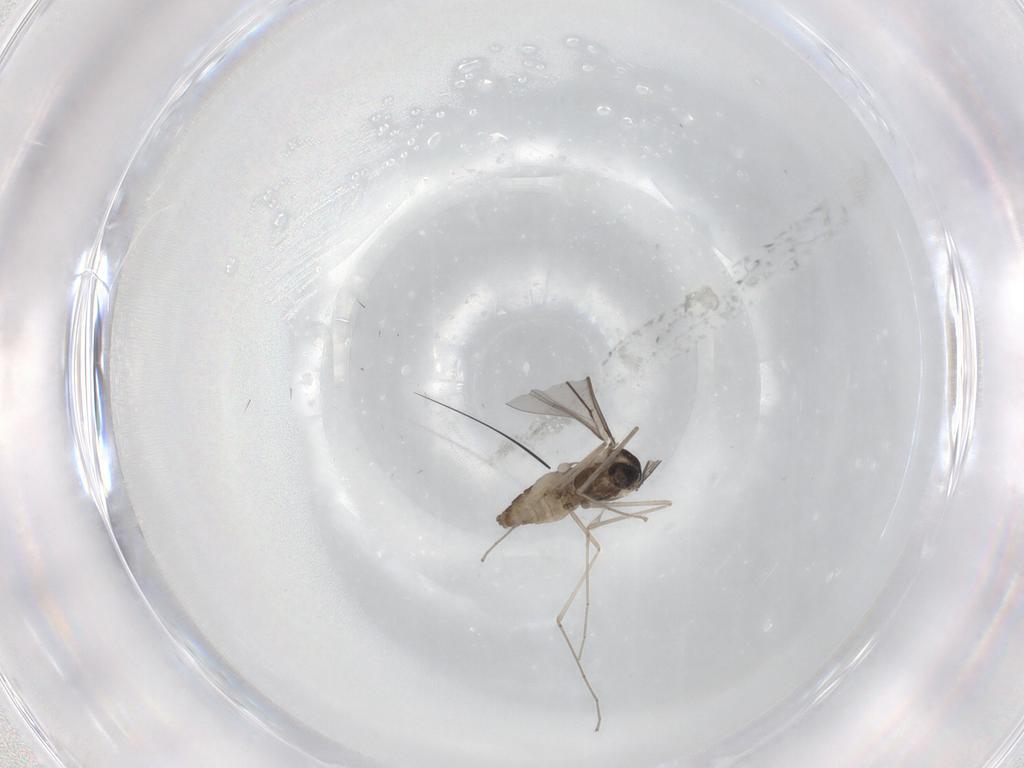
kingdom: Animalia
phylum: Arthropoda
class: Insecta
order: Diptera
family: Cecidomyiidae
